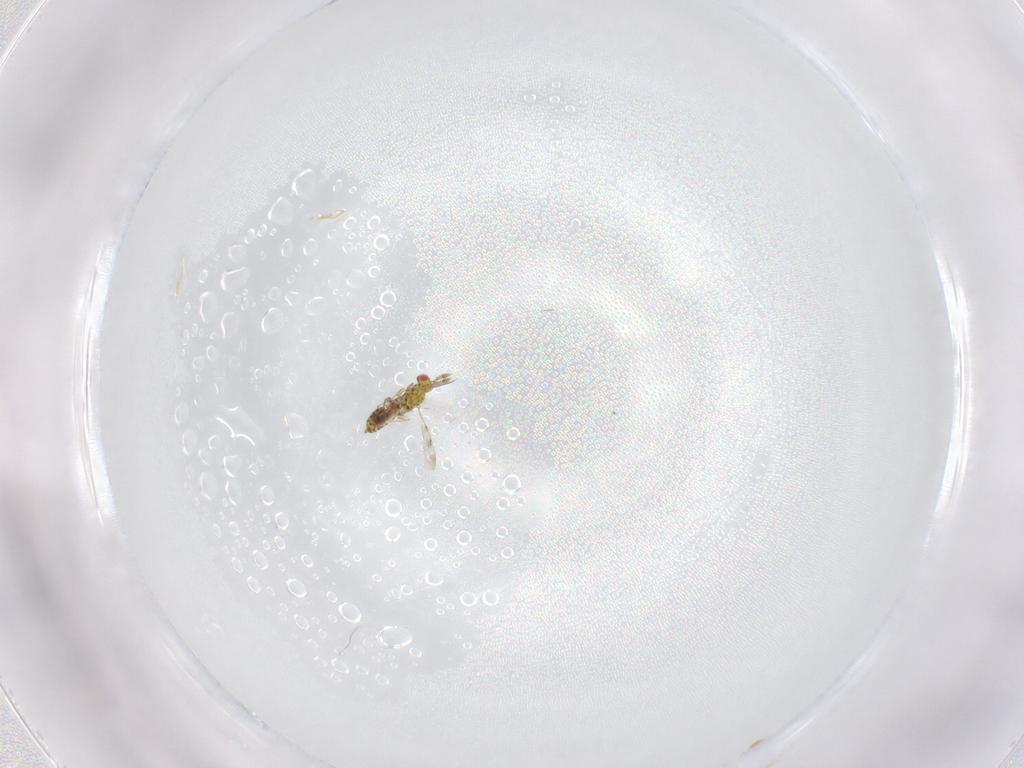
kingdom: Animalia
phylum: Arthropoda
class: Insecta
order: Hymenoptera
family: Eulophidae
